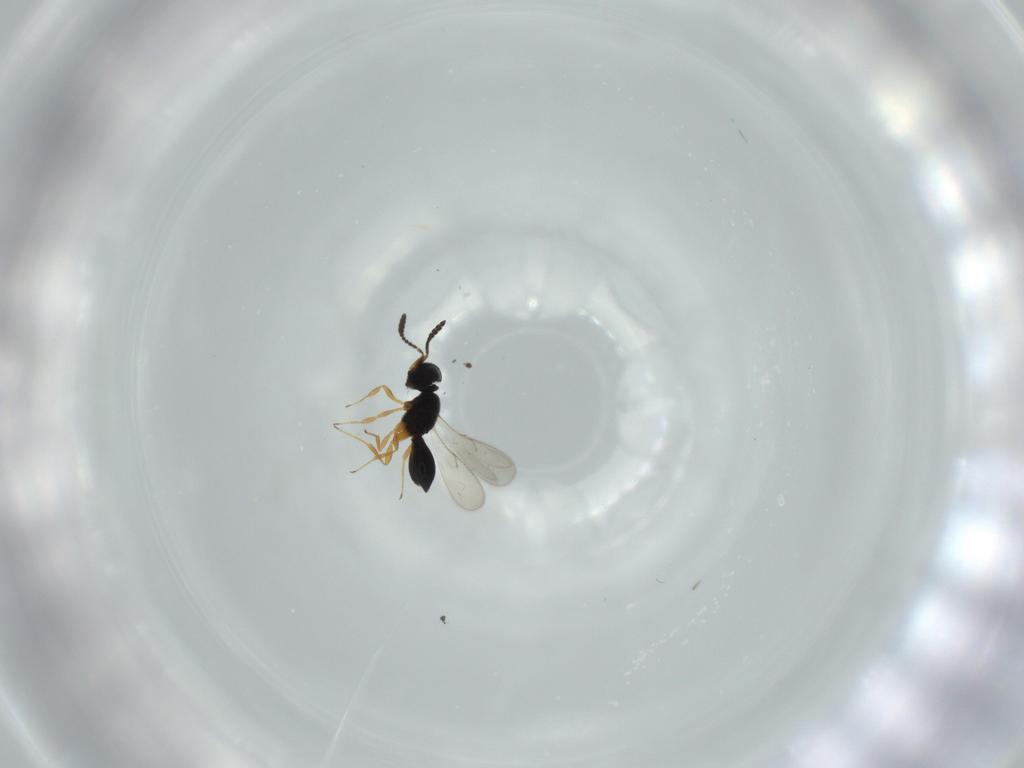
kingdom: Animalia
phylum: Arthropoda
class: Insecta
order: Hymenoptera
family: Scelionidae
